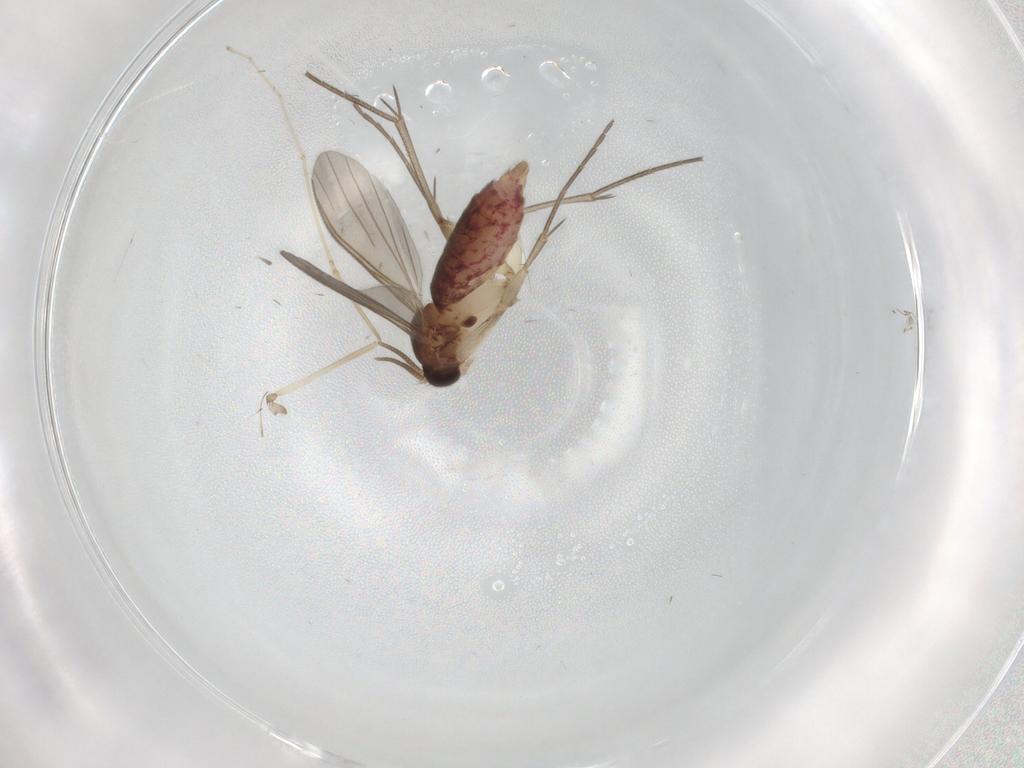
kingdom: Animalia
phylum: Arthropoda
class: Insecta
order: Diptera
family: Mycetophilidae
